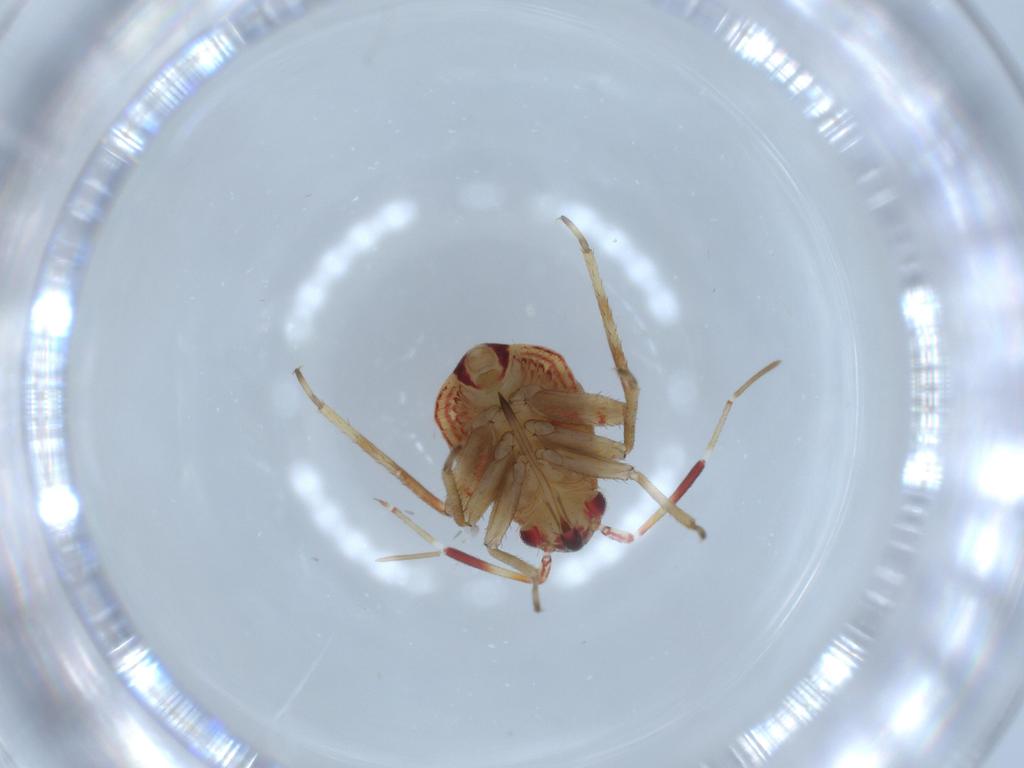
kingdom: Animalia
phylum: Arthropoda
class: Insecta
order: Hemiptera
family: Miridae
